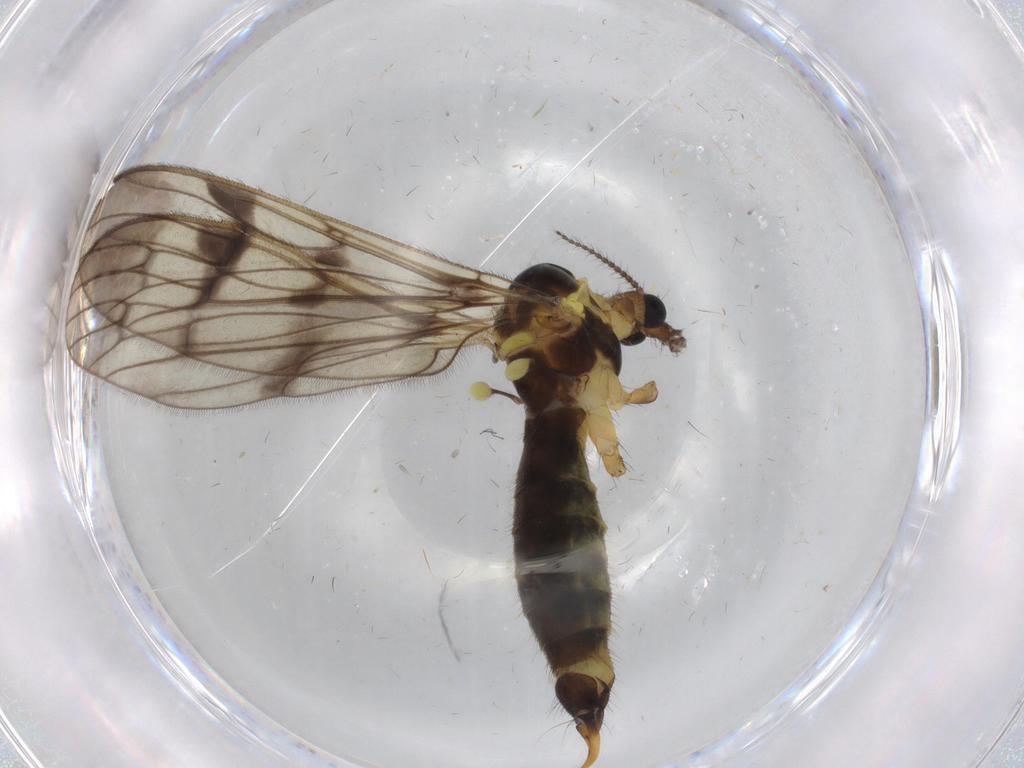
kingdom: Animalia
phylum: Arthropoda
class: Insecta
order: Diptera
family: Limoniidae
